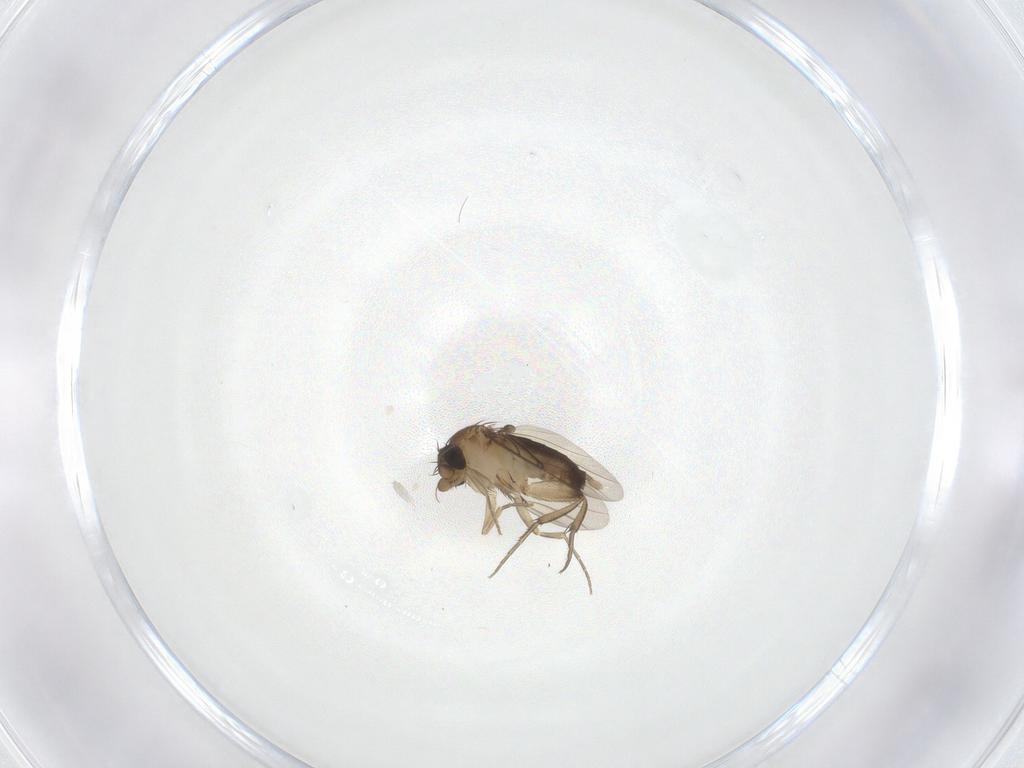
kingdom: Animalia
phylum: Arthropoda
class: Insecta
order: Diptera
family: Phoridae
